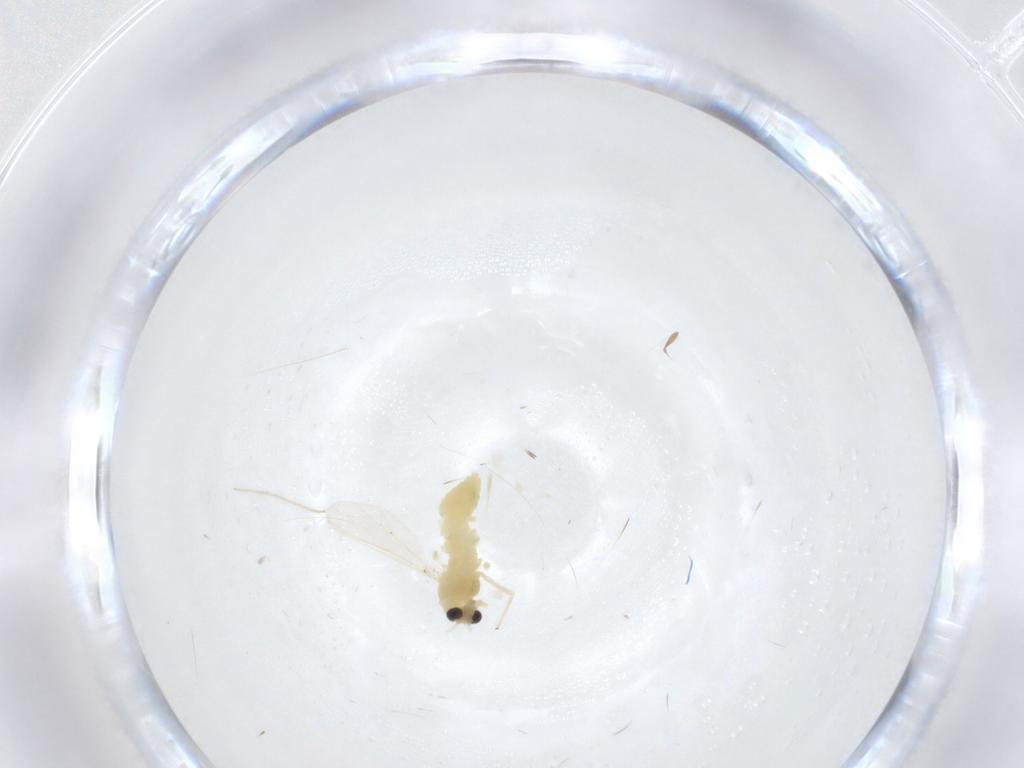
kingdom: Animalia
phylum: Arthropoda
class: Insecta
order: Diptera
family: Chironomidae
